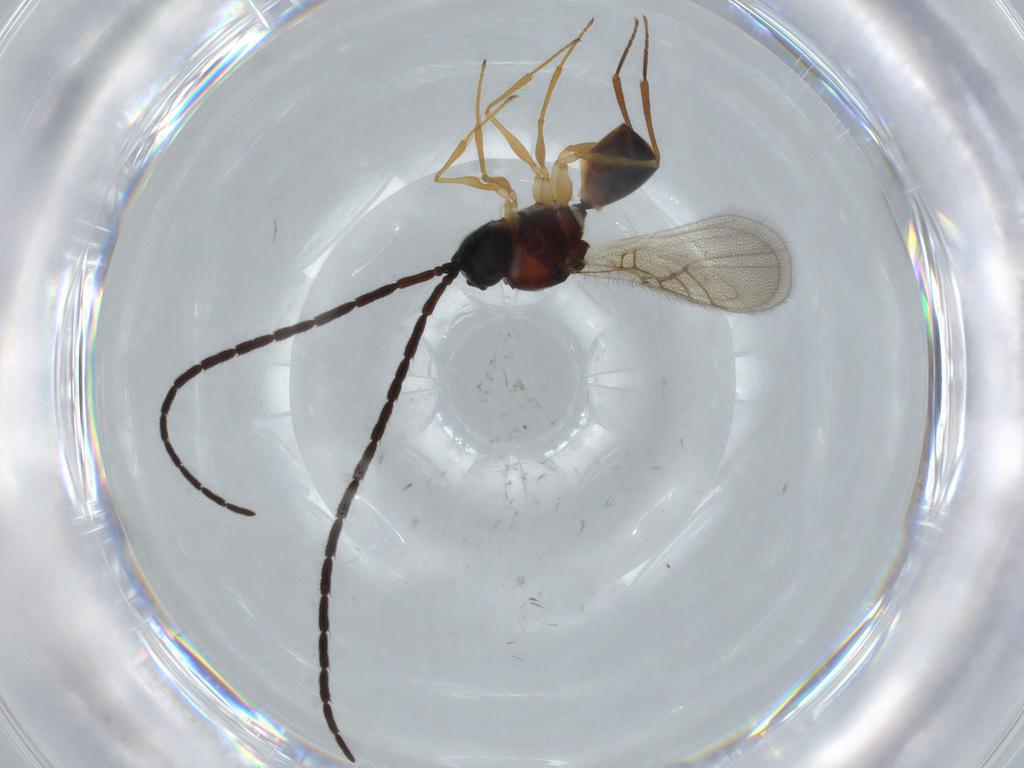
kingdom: Animalia
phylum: Arthropoda
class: Insecta
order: Hymenoptera
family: Figitidae
